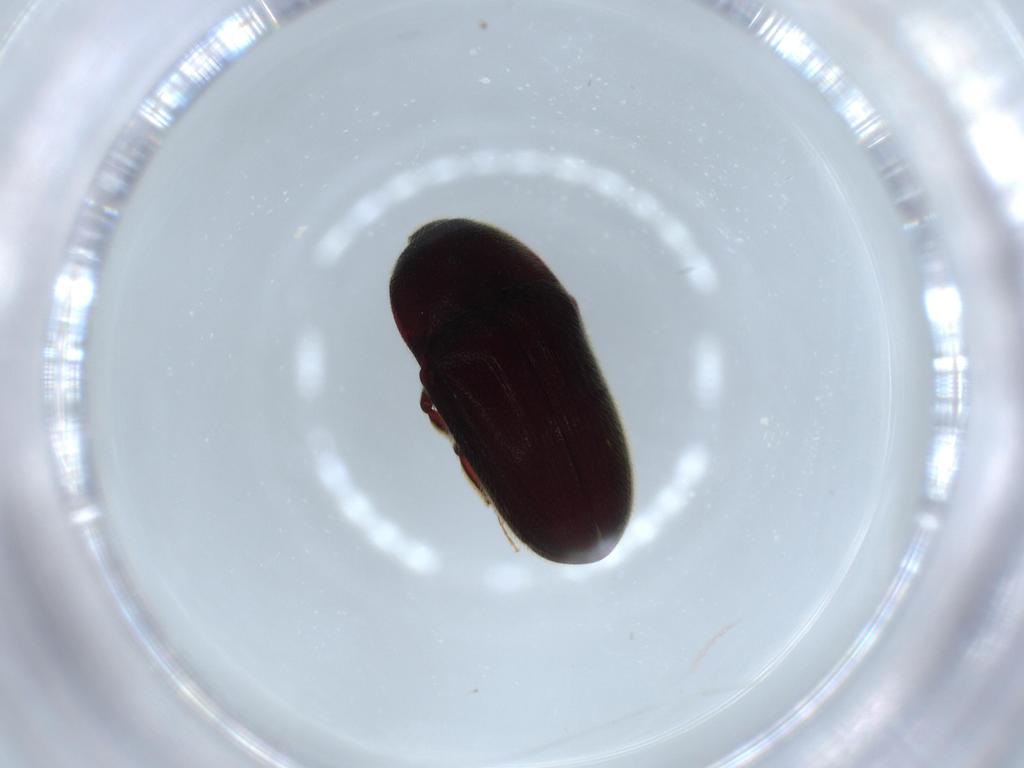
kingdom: Animalia
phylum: Arthropoda
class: Insecta
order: Coleoptera
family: Throscidae
